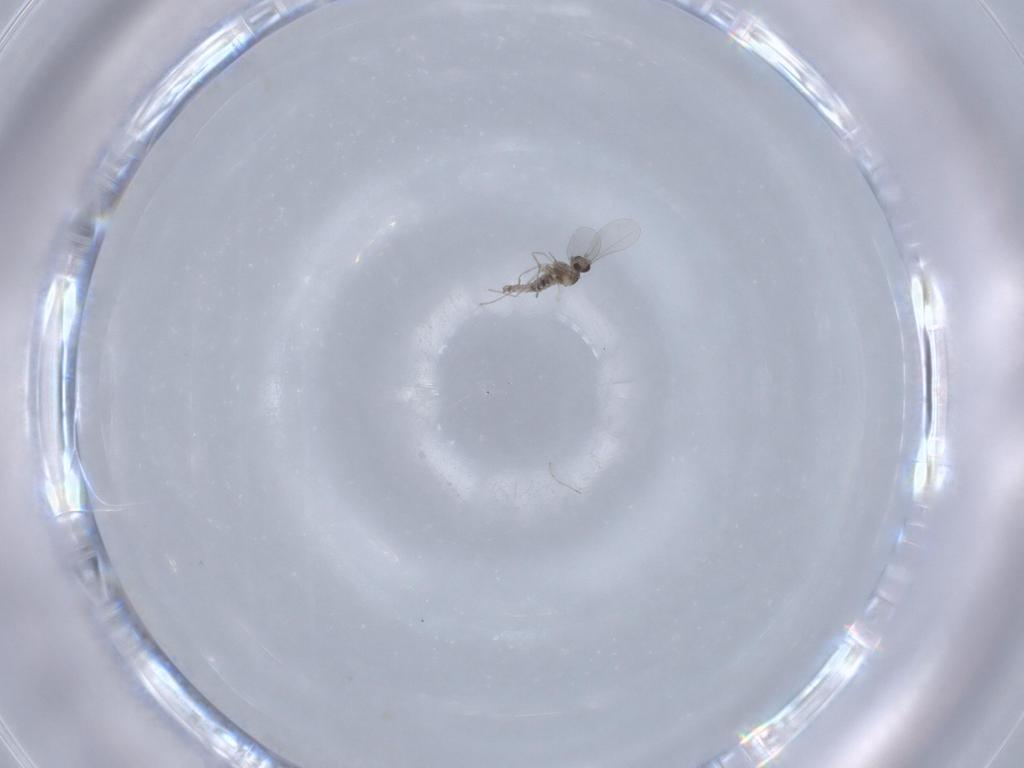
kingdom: Animalia
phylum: Arthropoda
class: Insecta
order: Diptera
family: Cecidomyiidae
